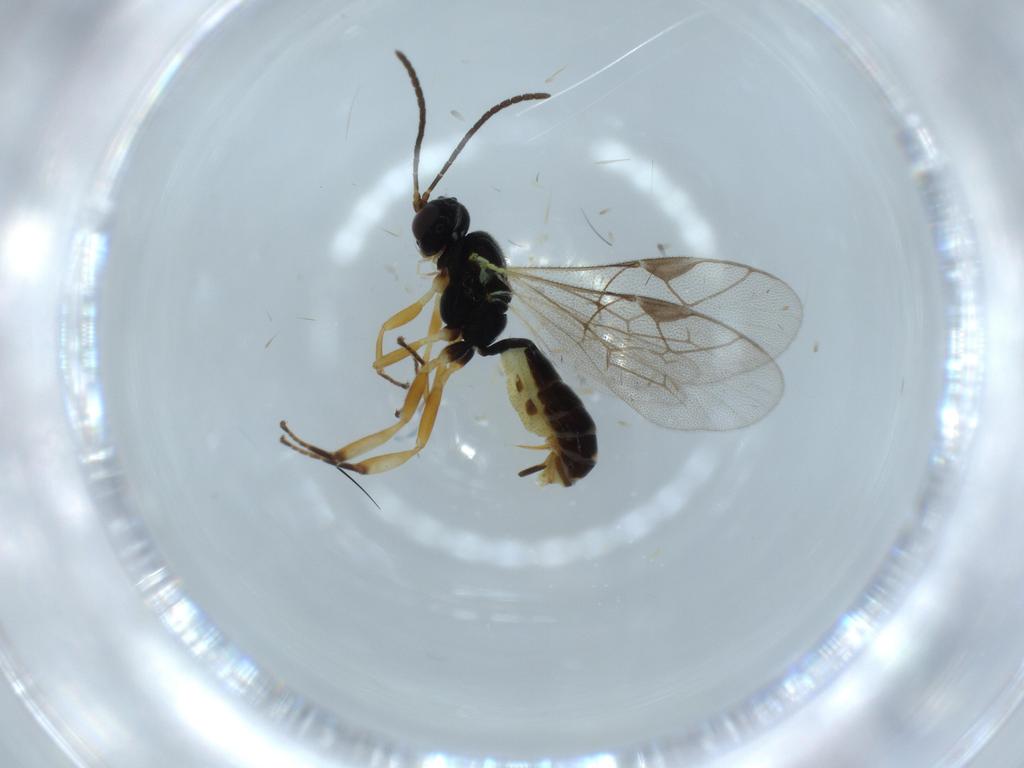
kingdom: Animalia
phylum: Arthropoda
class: Insecta
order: Hymenoptera
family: Ichneumonidae
